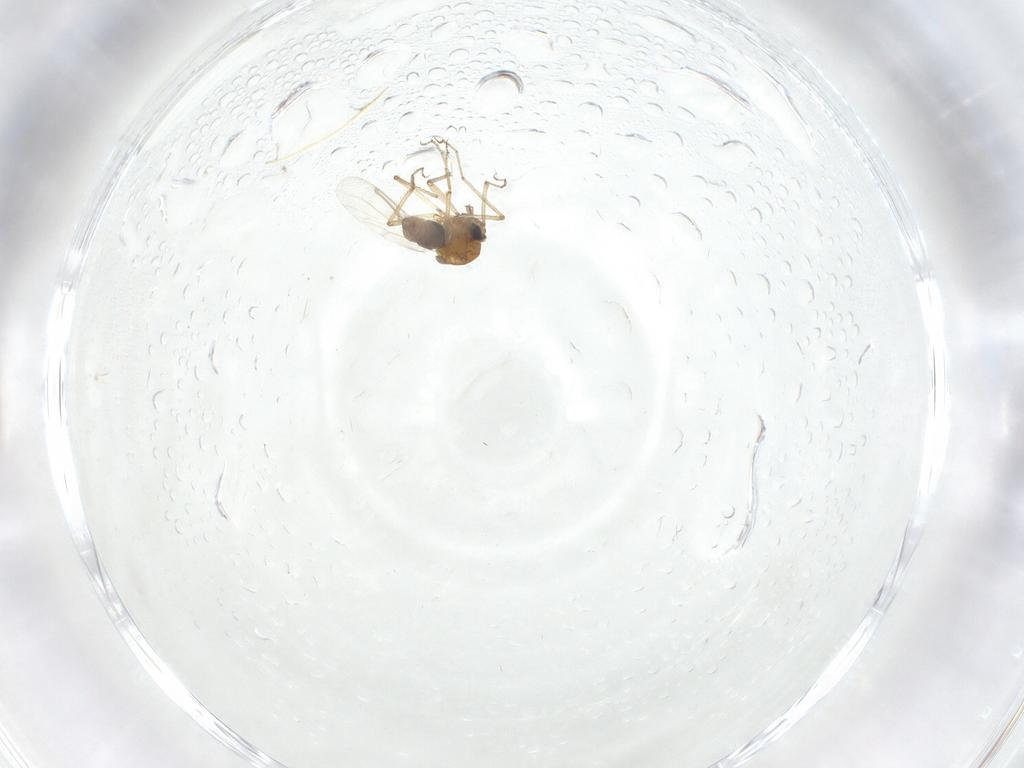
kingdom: Animalia
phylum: Arthropoda
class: Insecta
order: Diptera
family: Chironomidae
